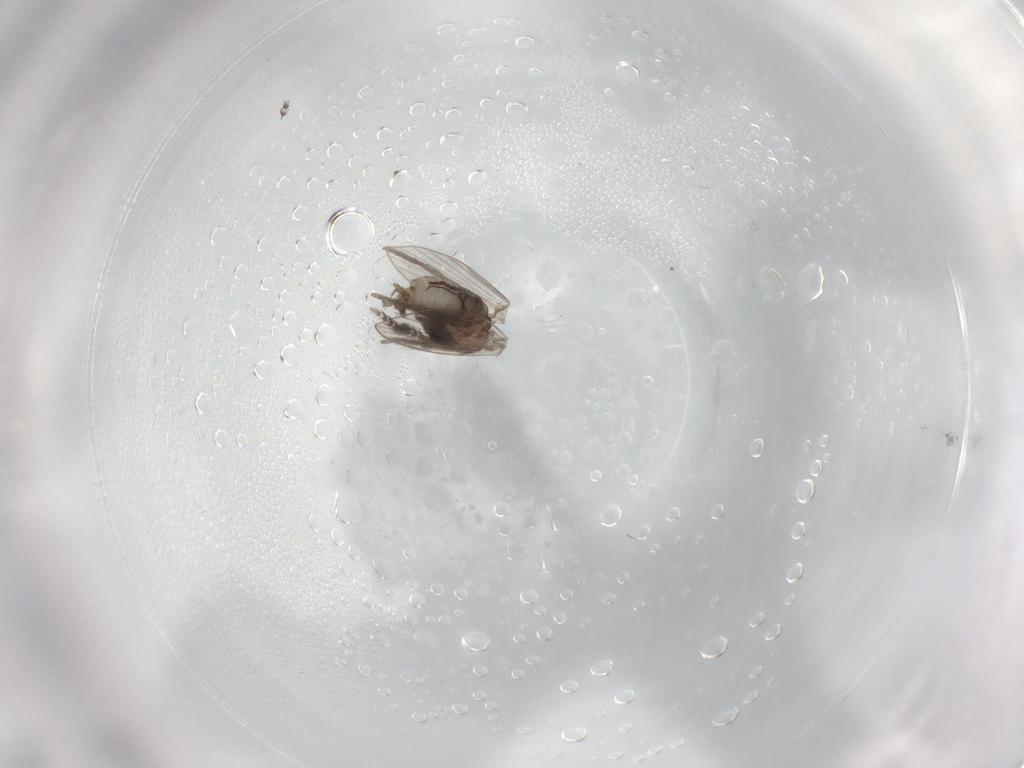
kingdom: Animalia
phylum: Arthropoda
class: Insecta
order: Diptera
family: Psychodidae
